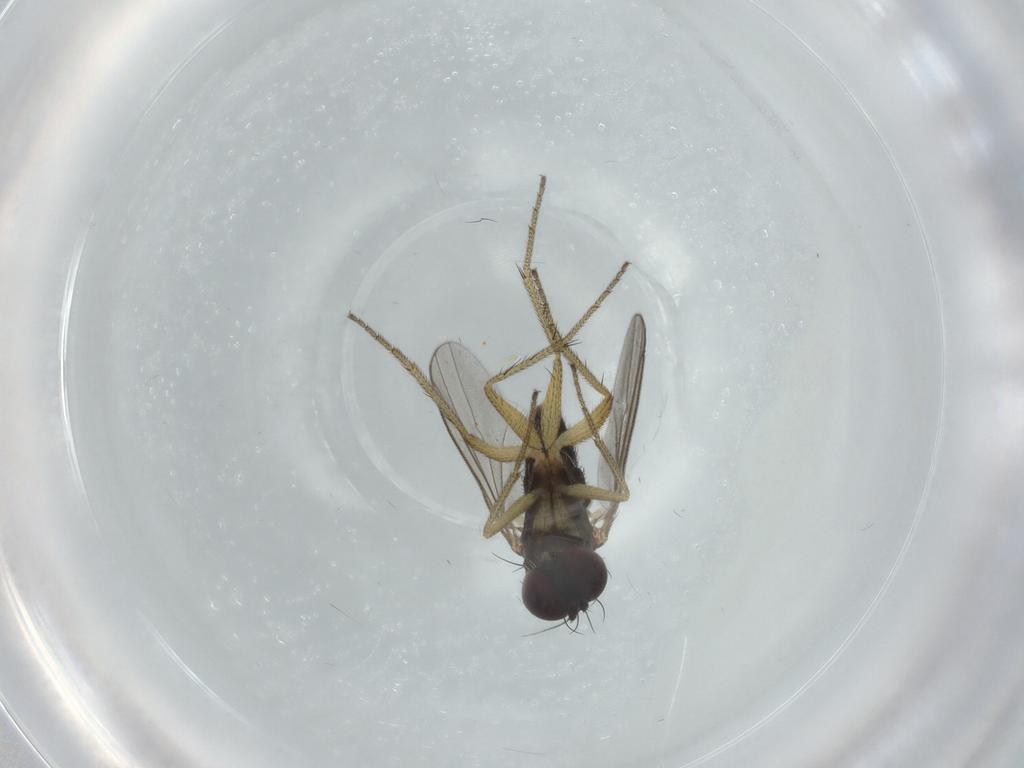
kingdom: Animalia
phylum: Arthropoda
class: Insecta
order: Diptera
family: Dolichopodidae
